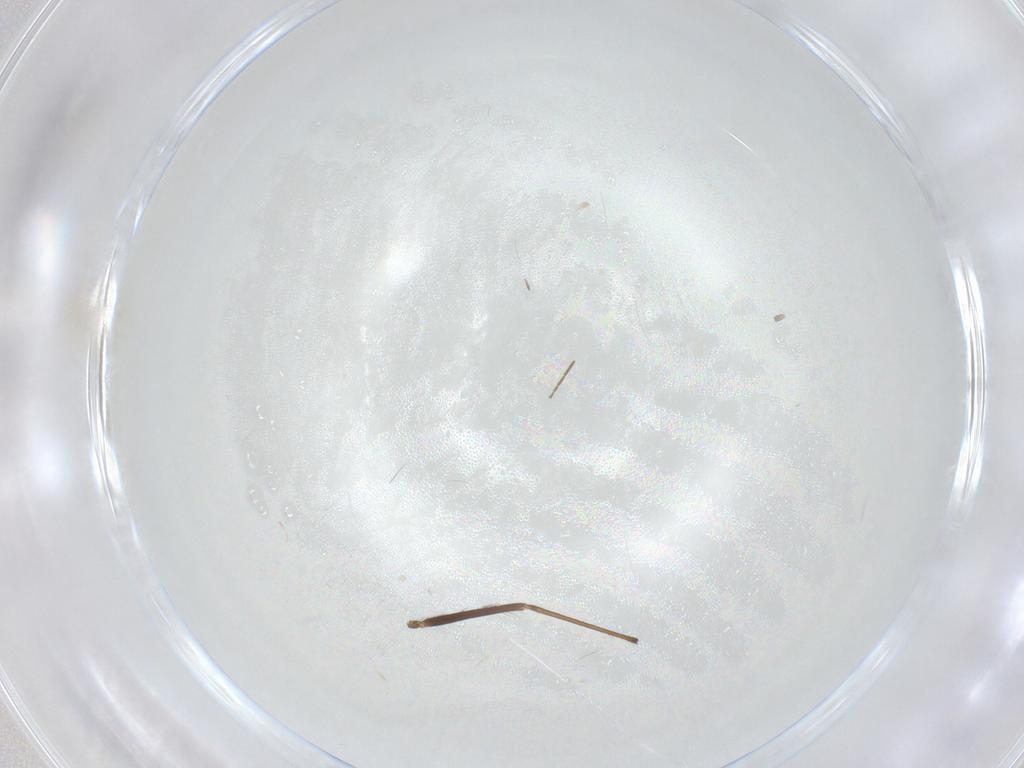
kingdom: Animalia
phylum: Arthropoda
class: Insecta
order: Diptera
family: Cecidomyiidae
